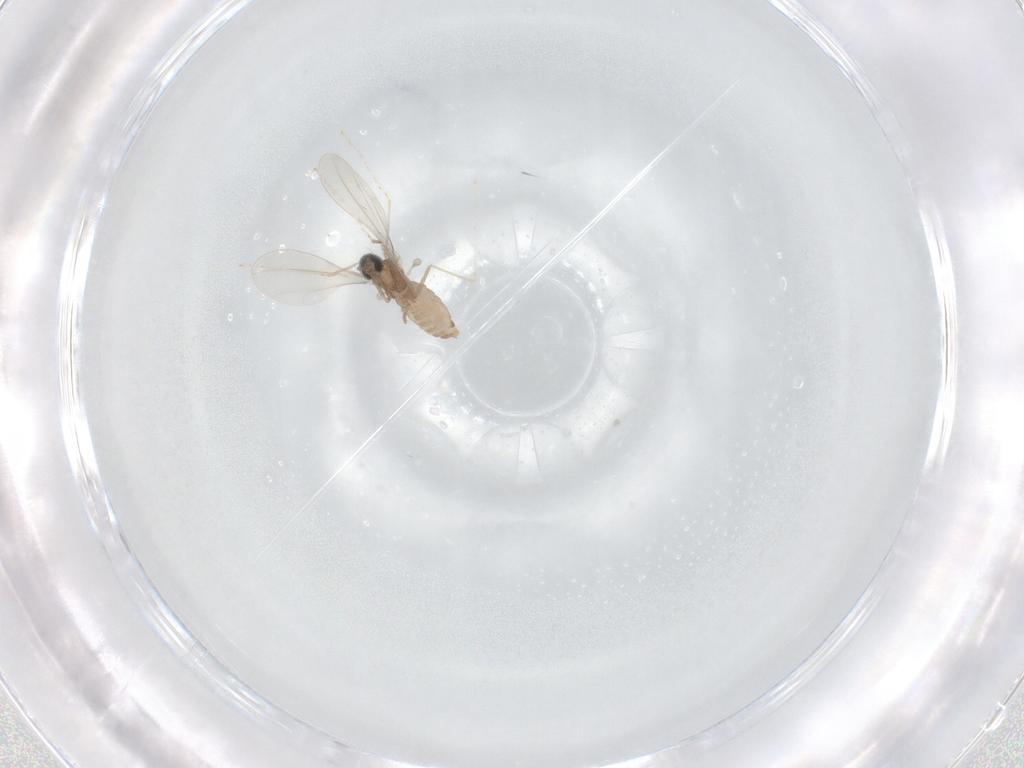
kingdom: Animalia
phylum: Arthropoda
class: Insecta
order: Diptera
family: Cecidomyiidae
